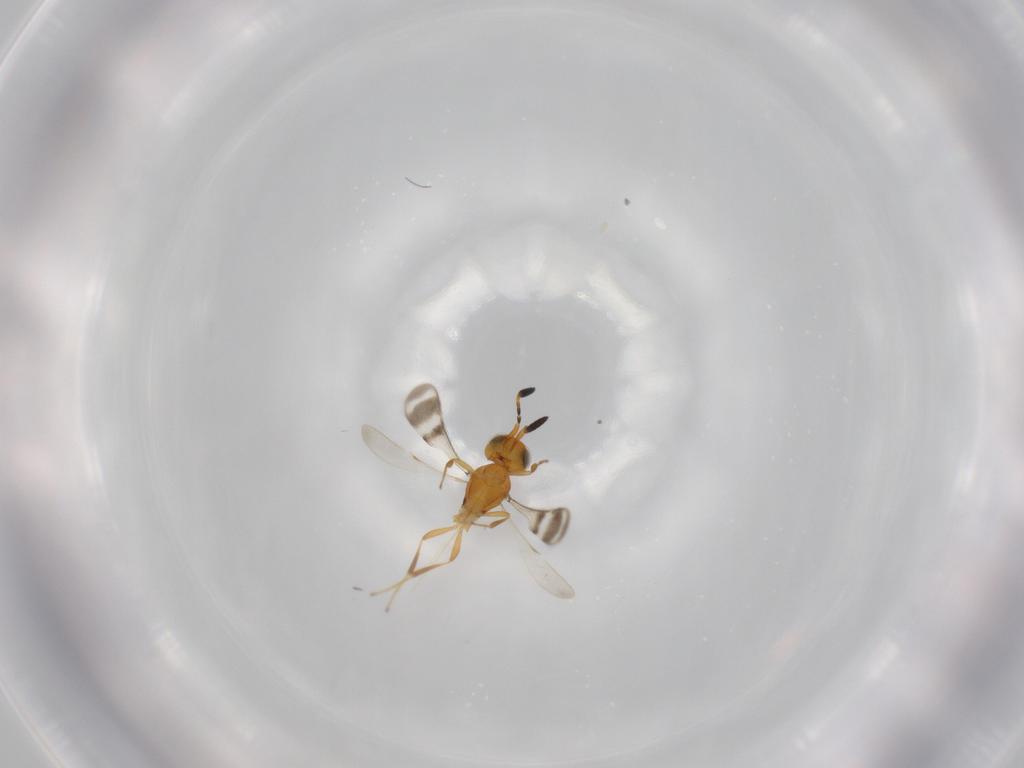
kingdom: Animalia
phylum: Arthropoda
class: Insecta
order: Hymenoptera
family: Scelionidae
